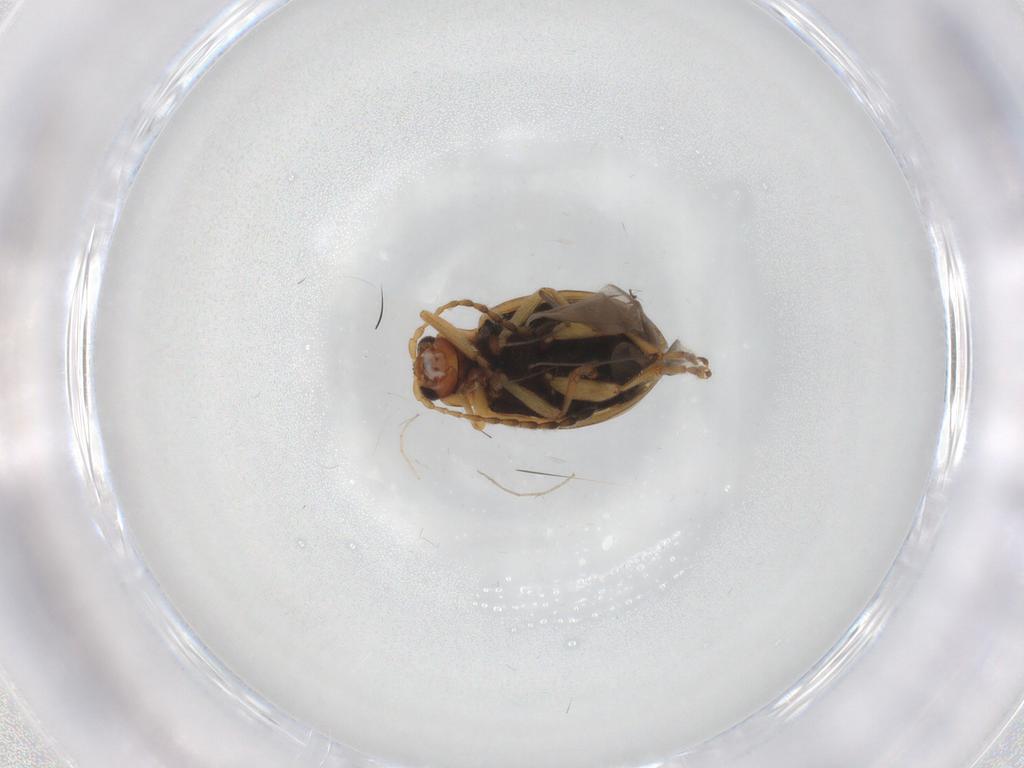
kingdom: Animalia
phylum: Arthropoda
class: Insecta
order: Coleoptera
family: Chrysomelidae
